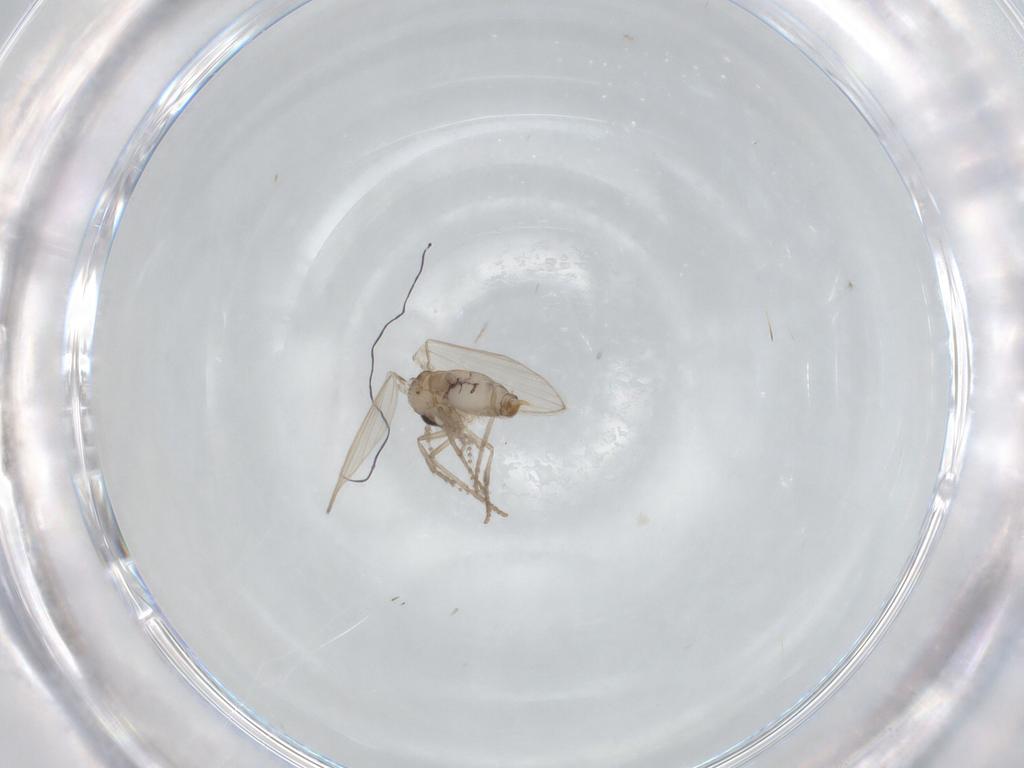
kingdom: Animalia
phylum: Arthropoda
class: Insecta
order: Diptera
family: Psychodidae
